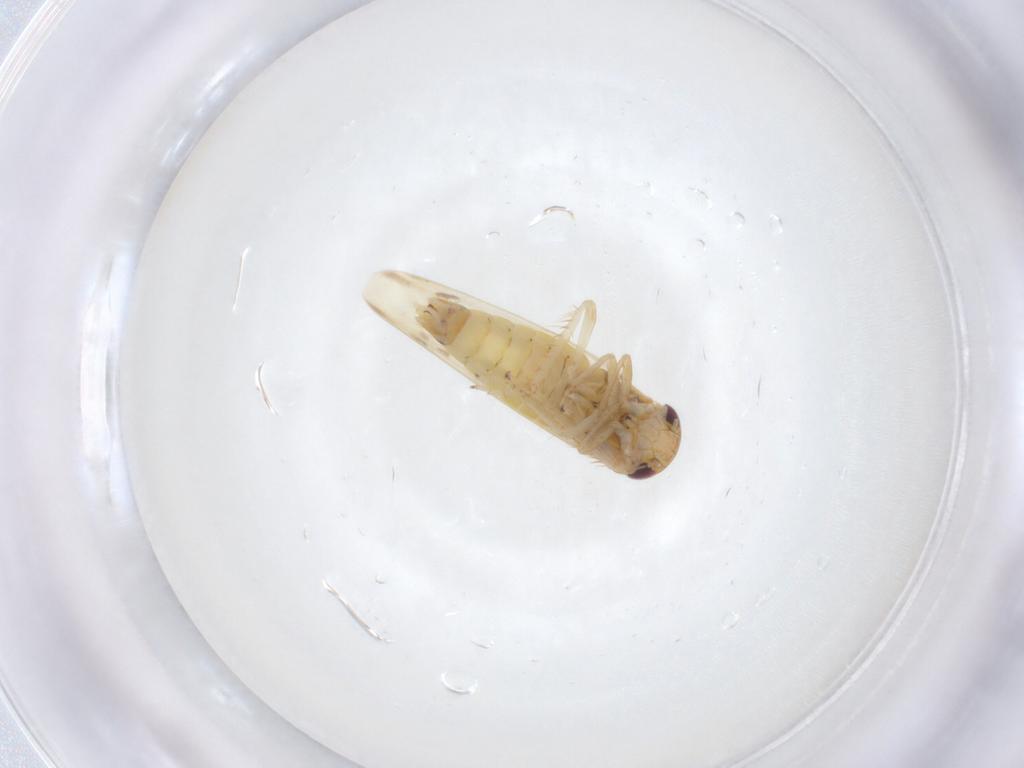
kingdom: Animalia
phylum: Arthropoda
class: Insecta
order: Hemiptera
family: Cicadellidae
